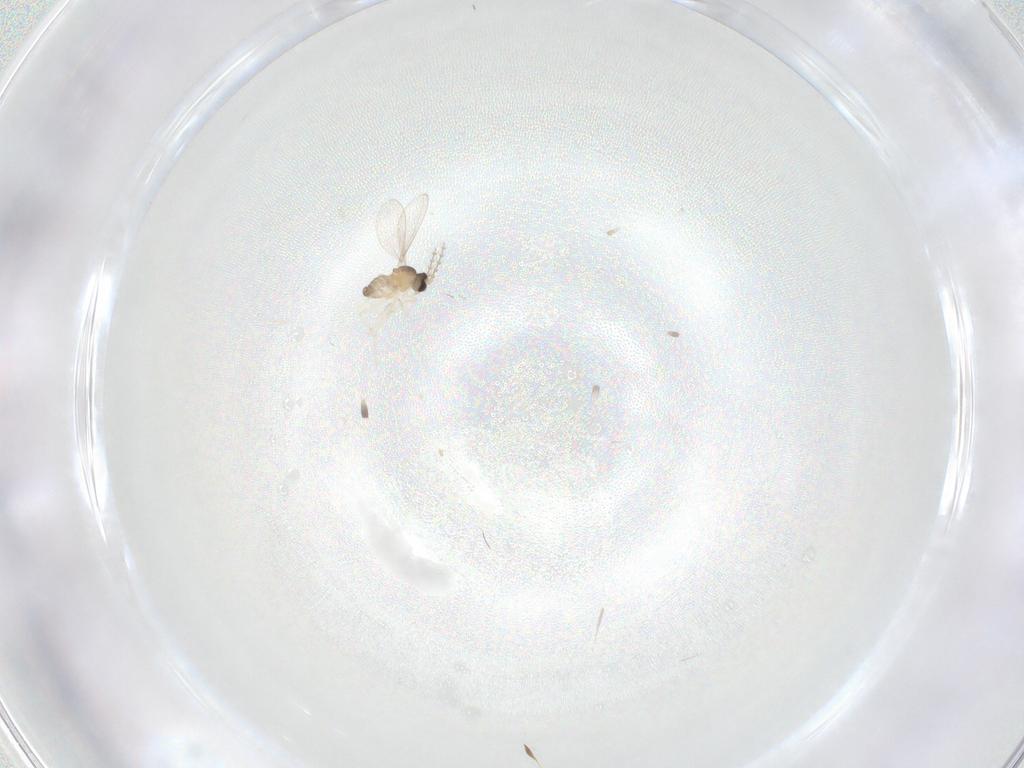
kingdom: Animalia
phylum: Arthropoda
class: Insecta
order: Diptera
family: Cecidomyiidae
